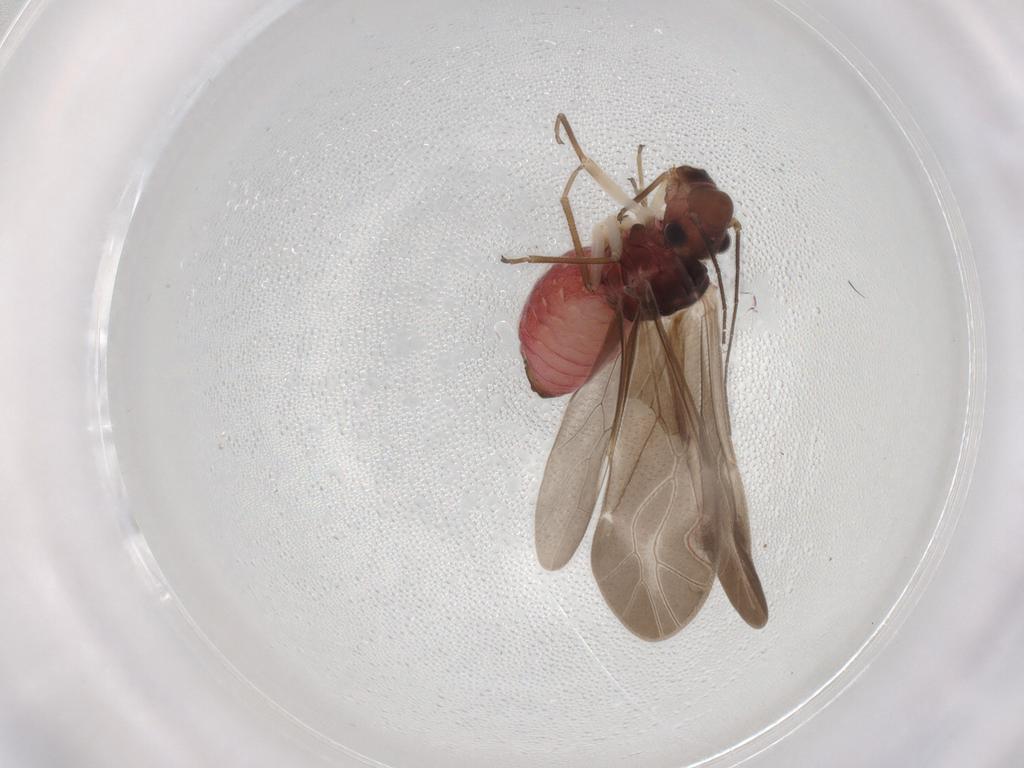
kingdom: Animalia
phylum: Arthropoda
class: Insecta
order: Psocodea
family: Caeciliusidae
